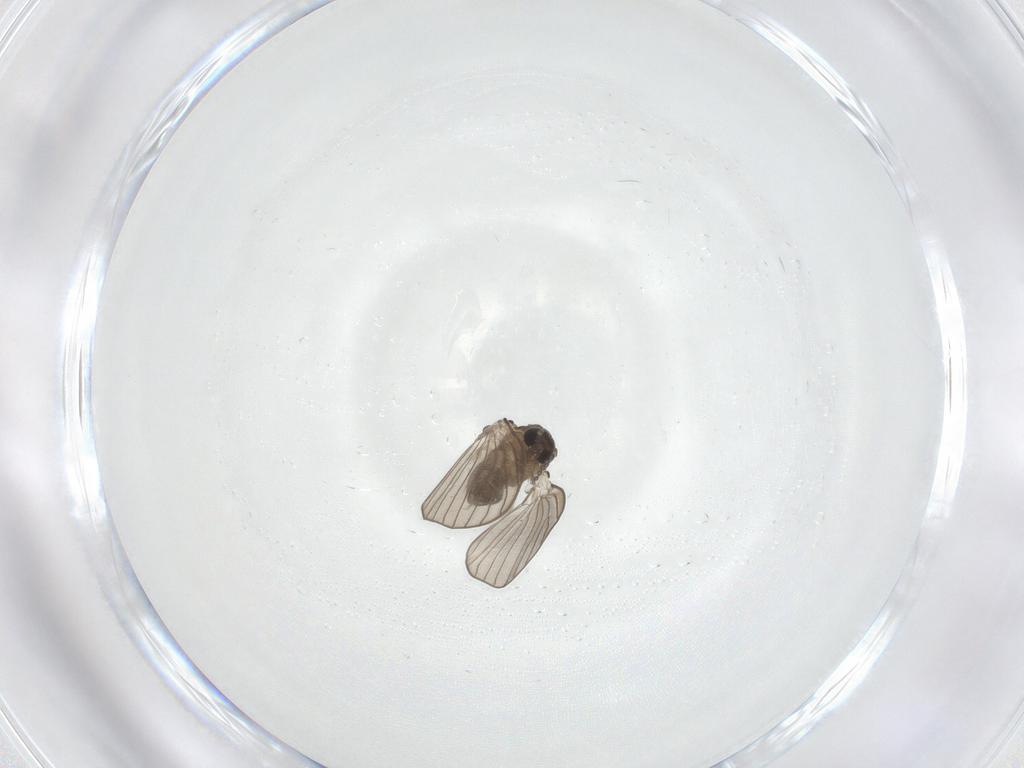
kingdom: Animalia
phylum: Arthropoda
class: Insecta
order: Diptera
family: Psychodidae
